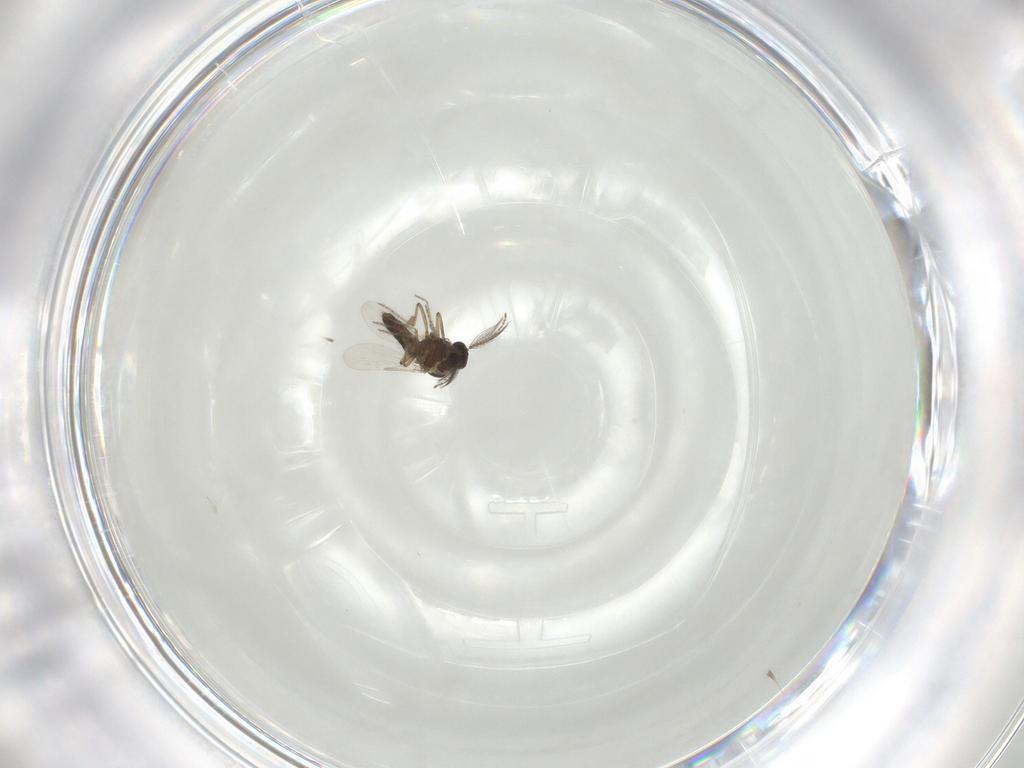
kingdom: Animalia
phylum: Arthropoda
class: Insecta
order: Diptera
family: Ceratopogonidae
